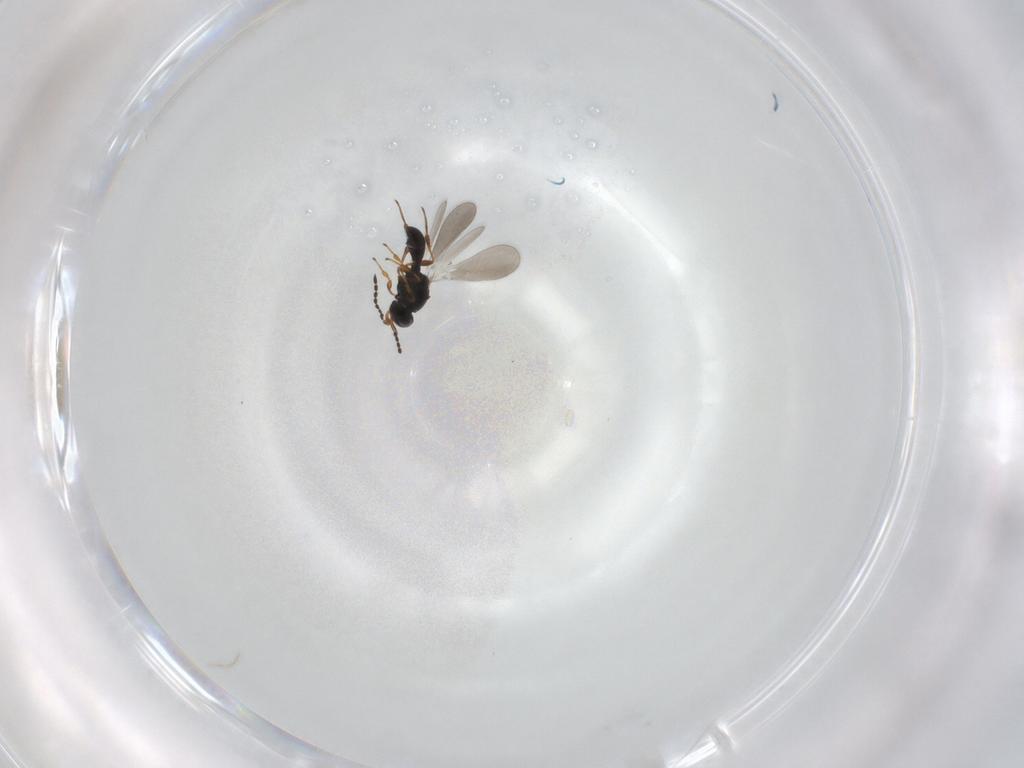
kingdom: Animalia
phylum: Arthropoda
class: Insecta
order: Hymenoptera
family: Platygastridae
